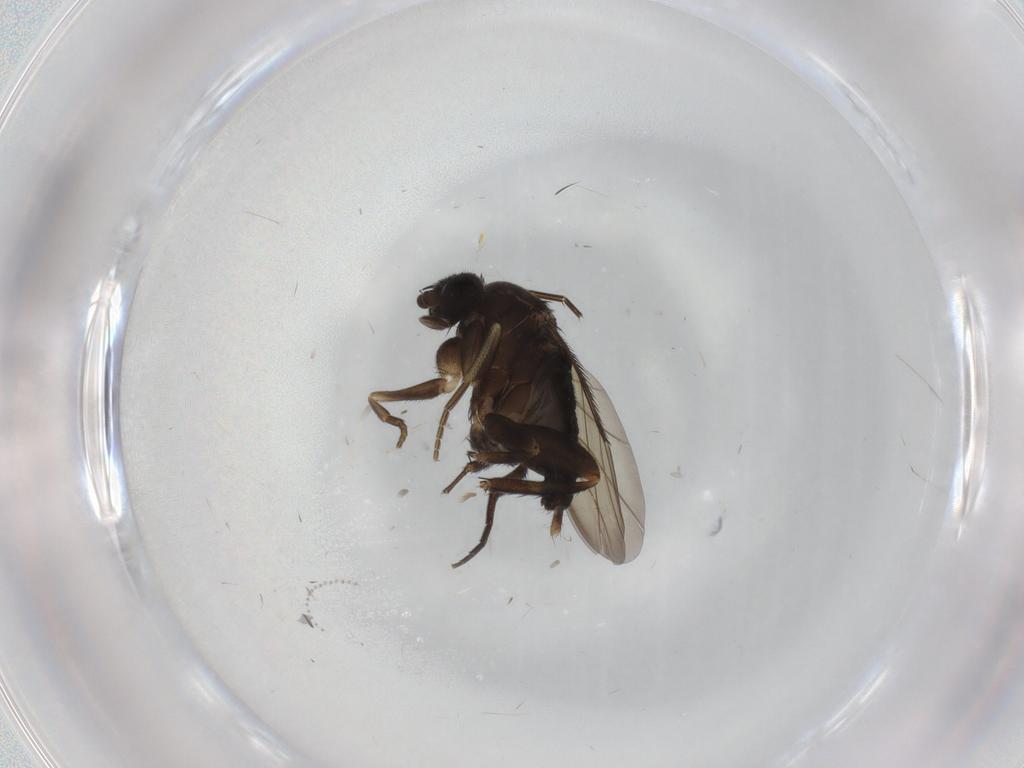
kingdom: Animalia
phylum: Arthropoda
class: Insecta
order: Diptera
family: Phoridae
